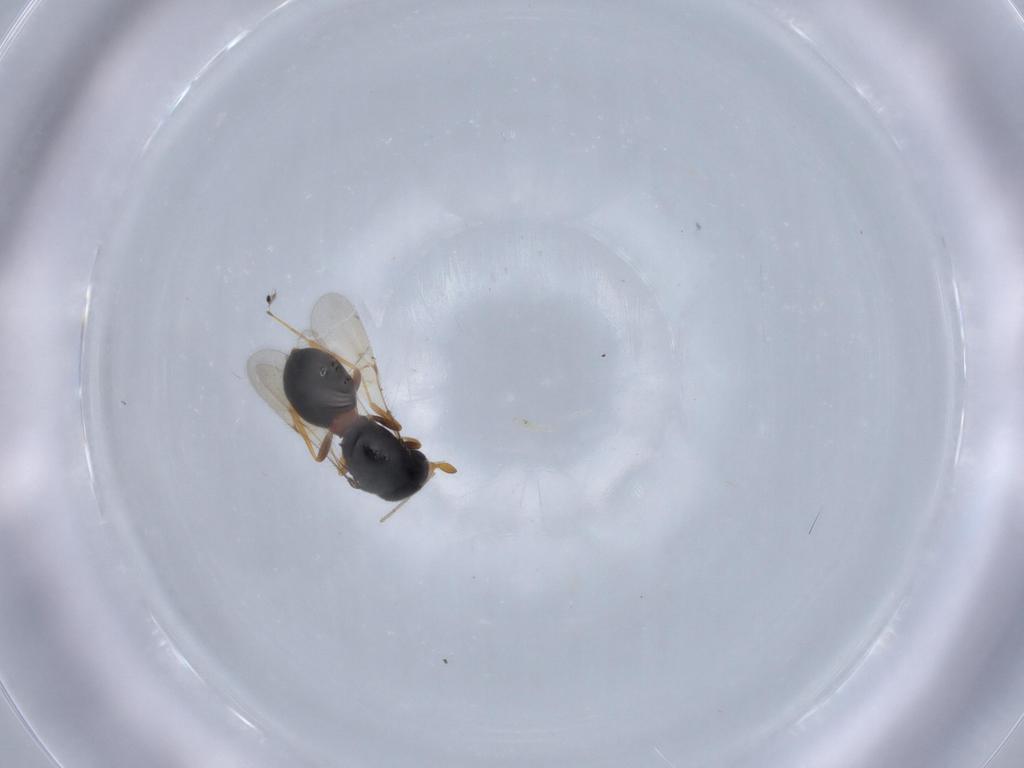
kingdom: Animalia
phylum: Arthropoda
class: Insecta
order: Hymenoptera
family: Scelionidae
